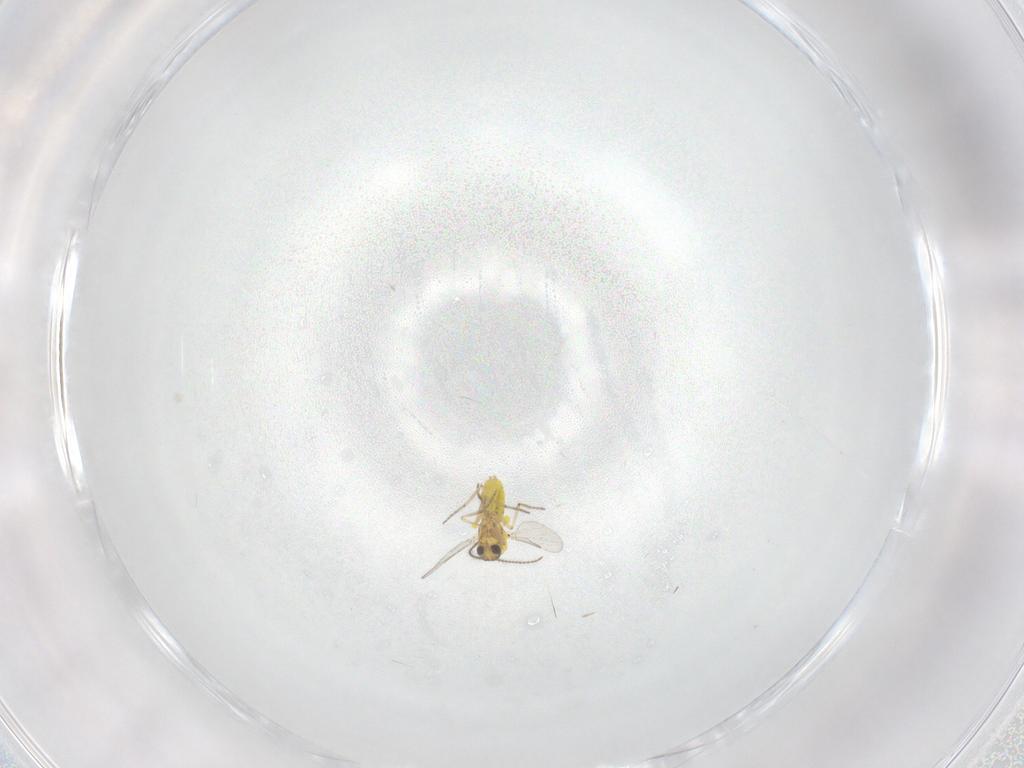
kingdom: Animalia
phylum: Arthropoda
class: Insecta
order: Diptera
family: Ceratopogonidae
